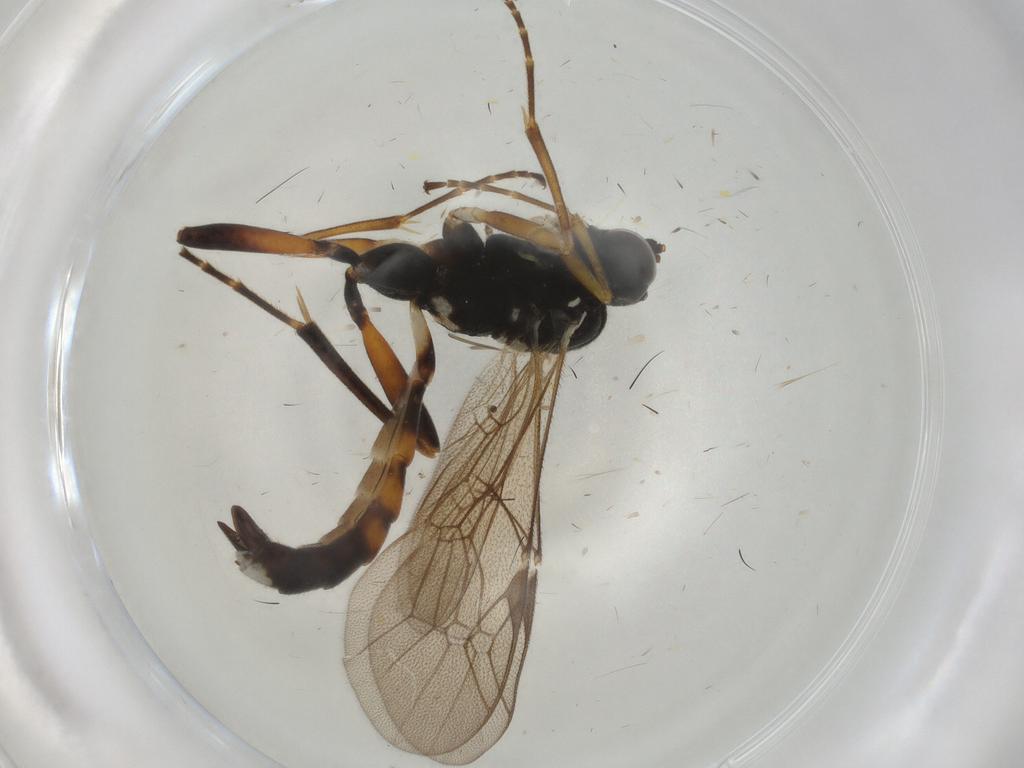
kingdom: Animalia
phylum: Arthropoda
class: Insecta
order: Hymenoptera
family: Ichneumonidae
